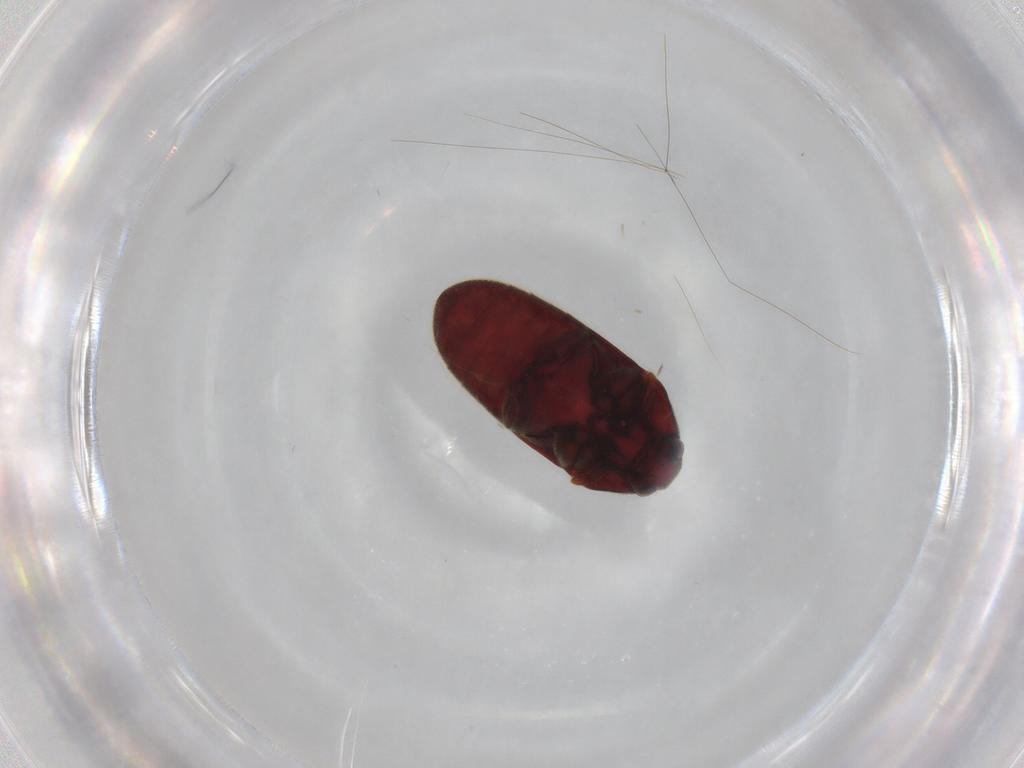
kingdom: Animalia
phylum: Arthropoda
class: Insecta
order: Coleoptera
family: Throscidae
